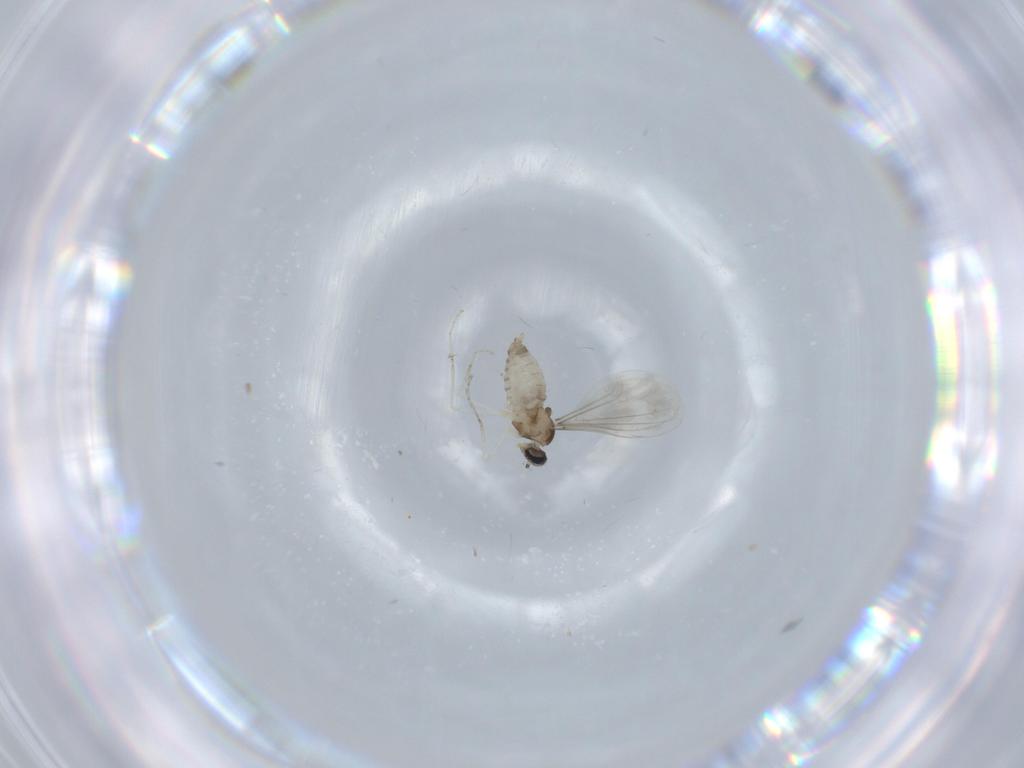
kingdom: Animalia
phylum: Arthropoda
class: Insecta
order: Diptera
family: Cecidomyiidae
